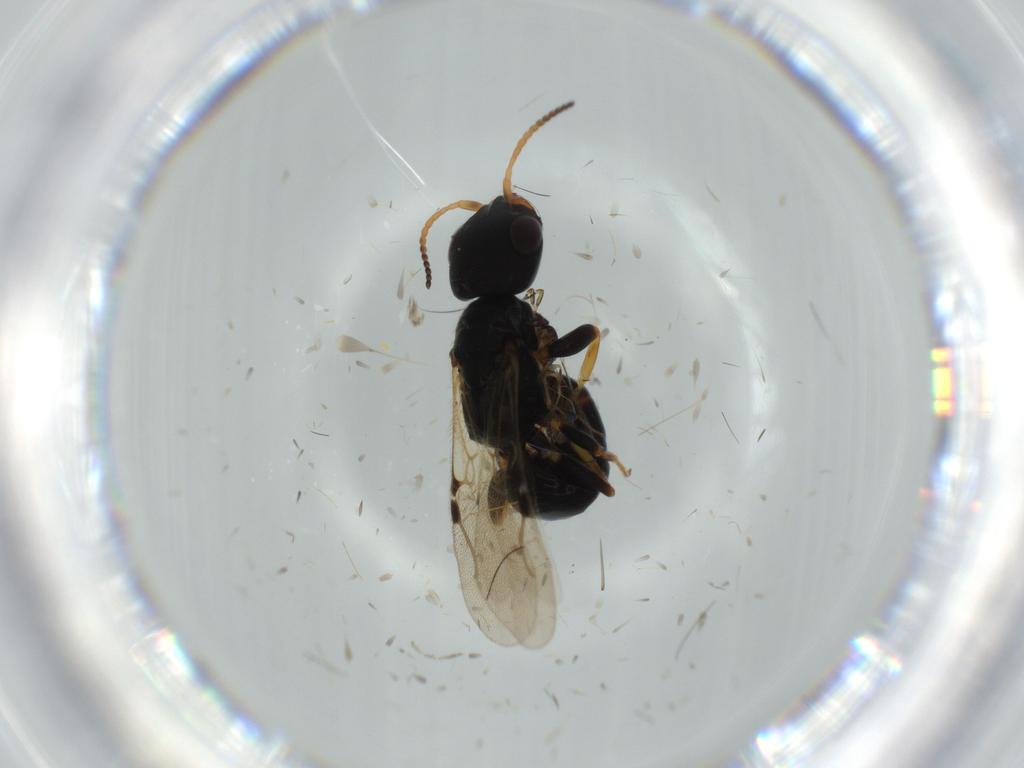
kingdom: Animalia
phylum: Arthropoda
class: Insecta
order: Hymenoptera
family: Bethylidae
